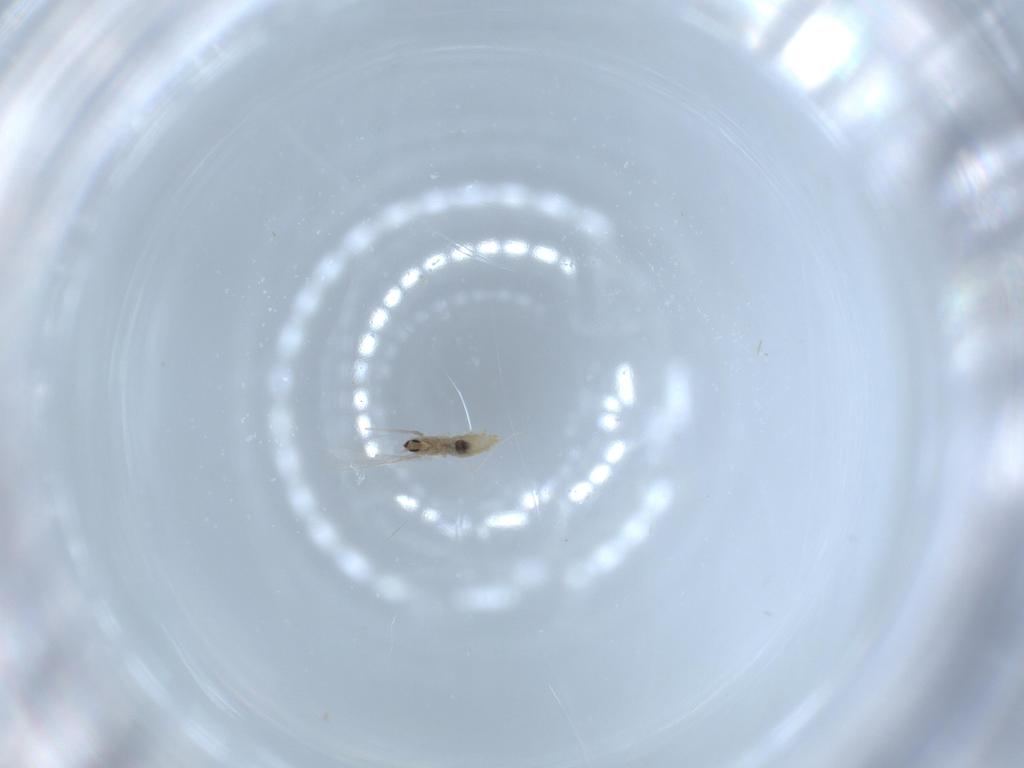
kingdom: Animalia
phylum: Arthropoda
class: Insecta
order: Diptera
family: Cecidomyiidae
